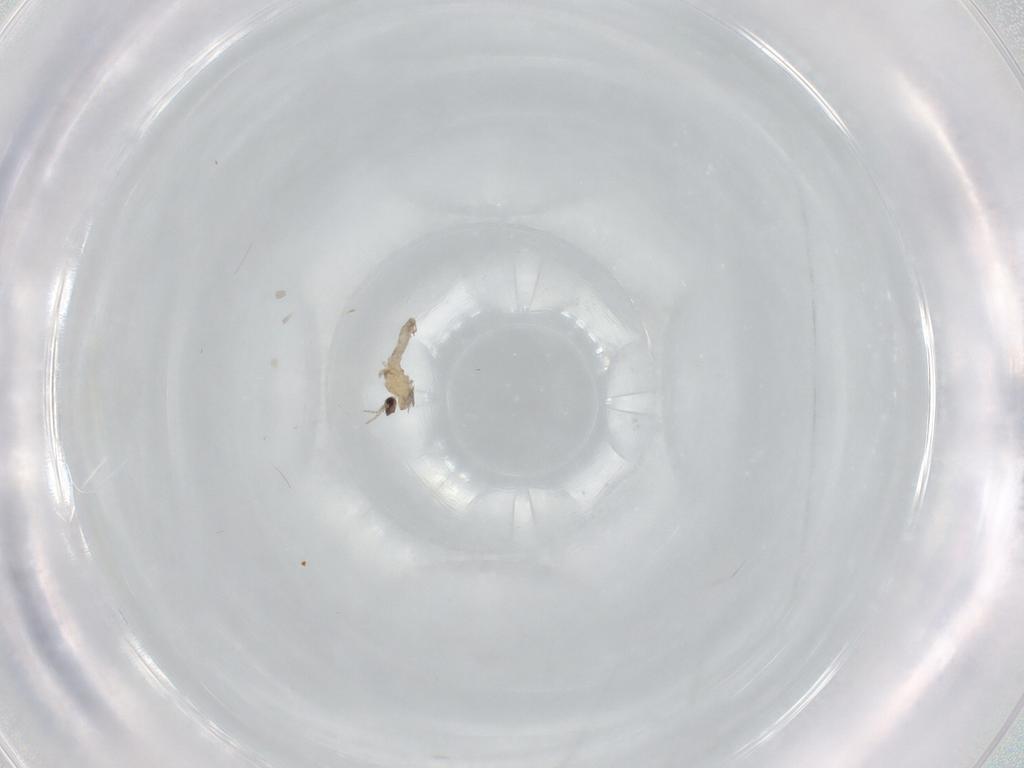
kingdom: Animalia
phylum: Arthropoda
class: Insecta
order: Diptera
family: Cecidomyiidae
